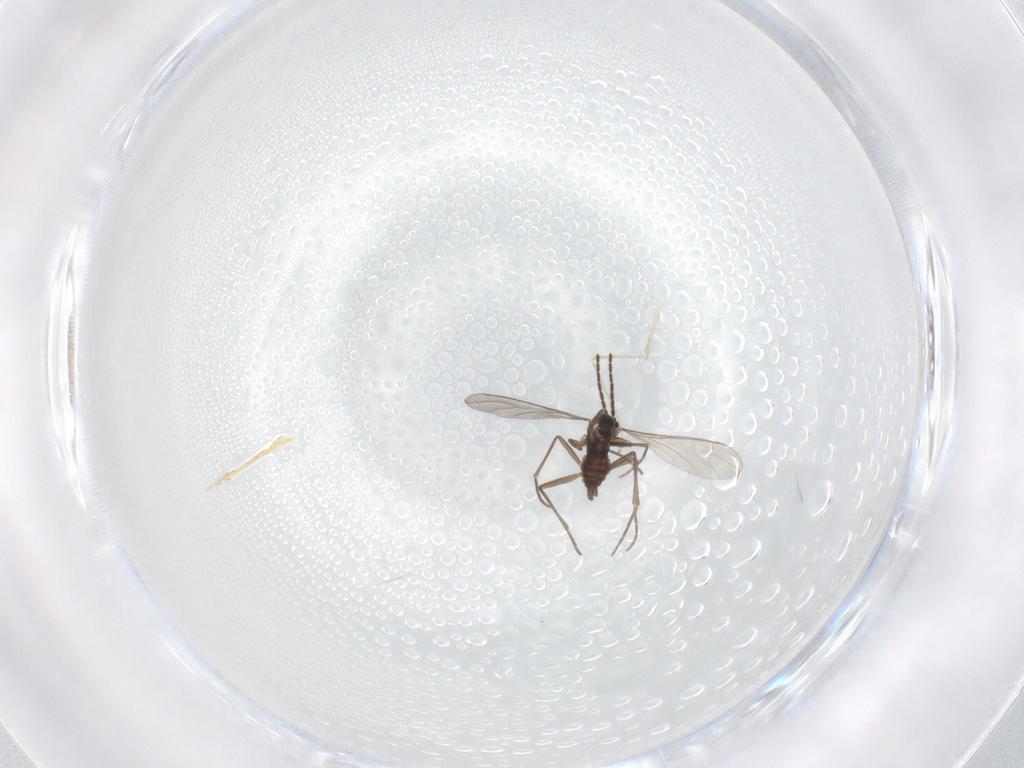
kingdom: Animalia
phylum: Arthropoda
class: Insecta
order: Diptera
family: Sciaridae
